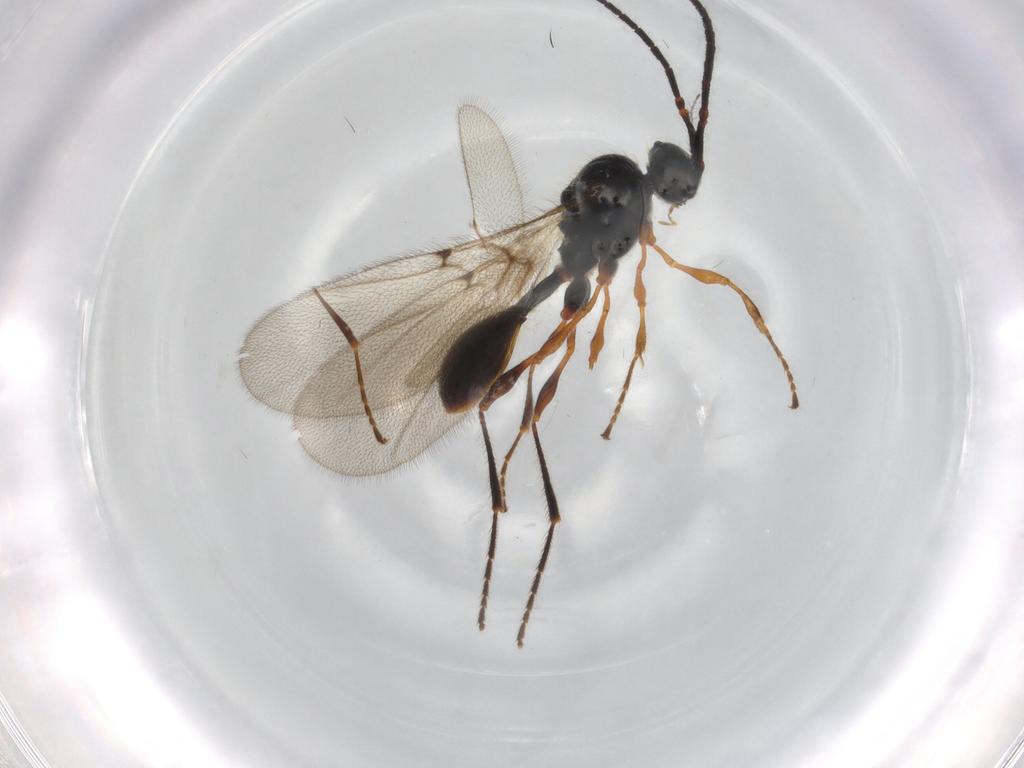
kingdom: Animalia
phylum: Arthropoda
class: Insecta
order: Hymenoptera
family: Diapriidae
